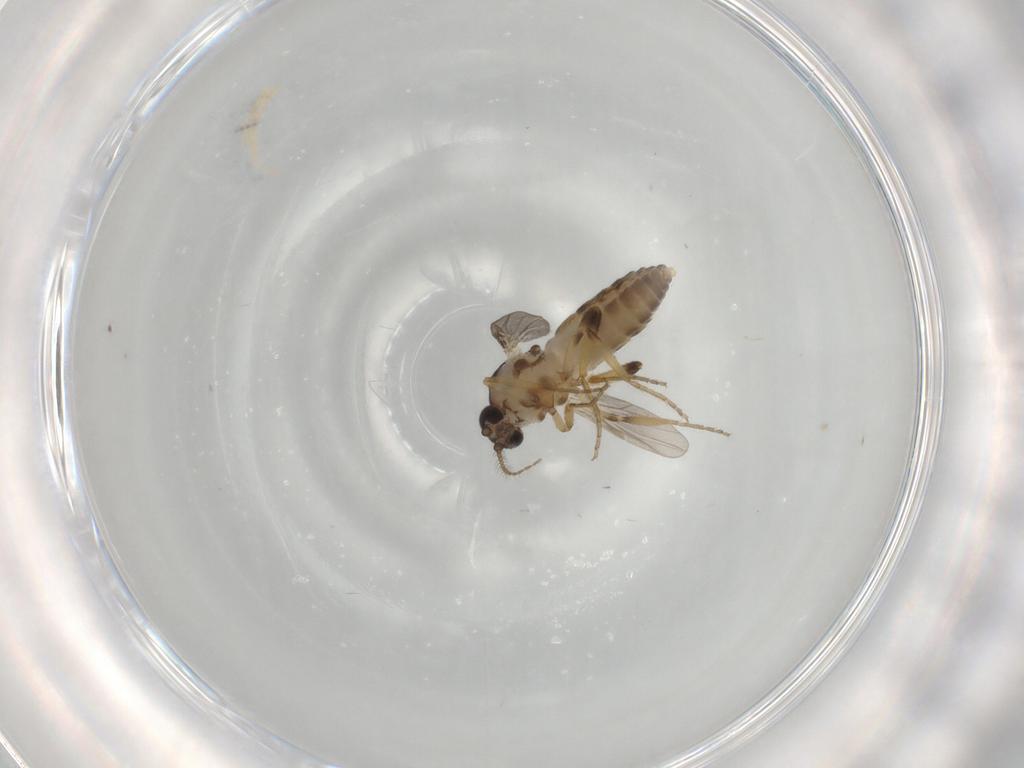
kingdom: Animalia
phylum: Arthropoda
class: Insecta
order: Diptera
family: Ceratopogonidae
